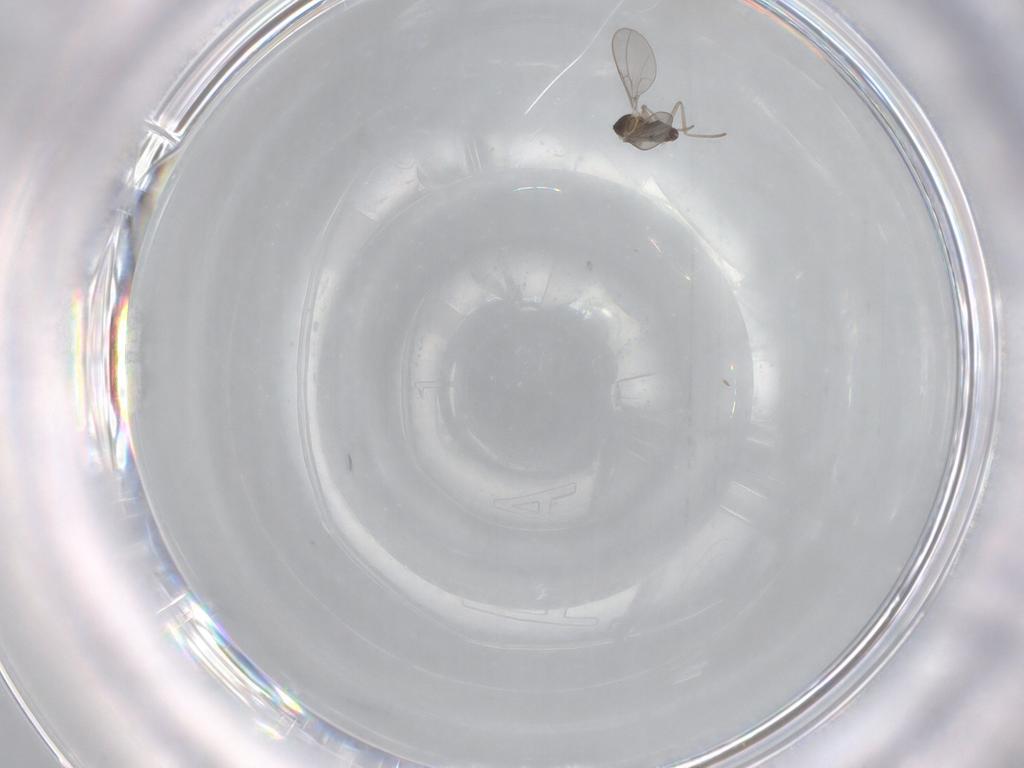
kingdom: Animalia
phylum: Arthropoda
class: Insecta
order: Diptera
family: Cecidomyiidae
